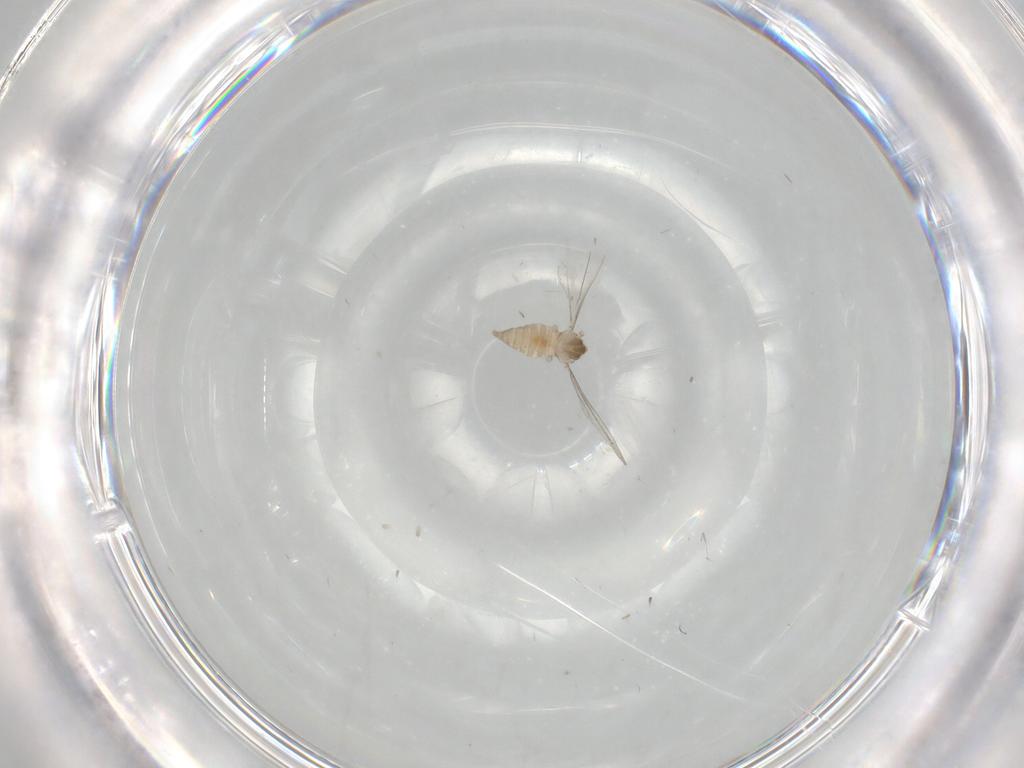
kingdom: Animalia
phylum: Arthropoda
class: Insecta
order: Diptera
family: Cecidomyiidae
